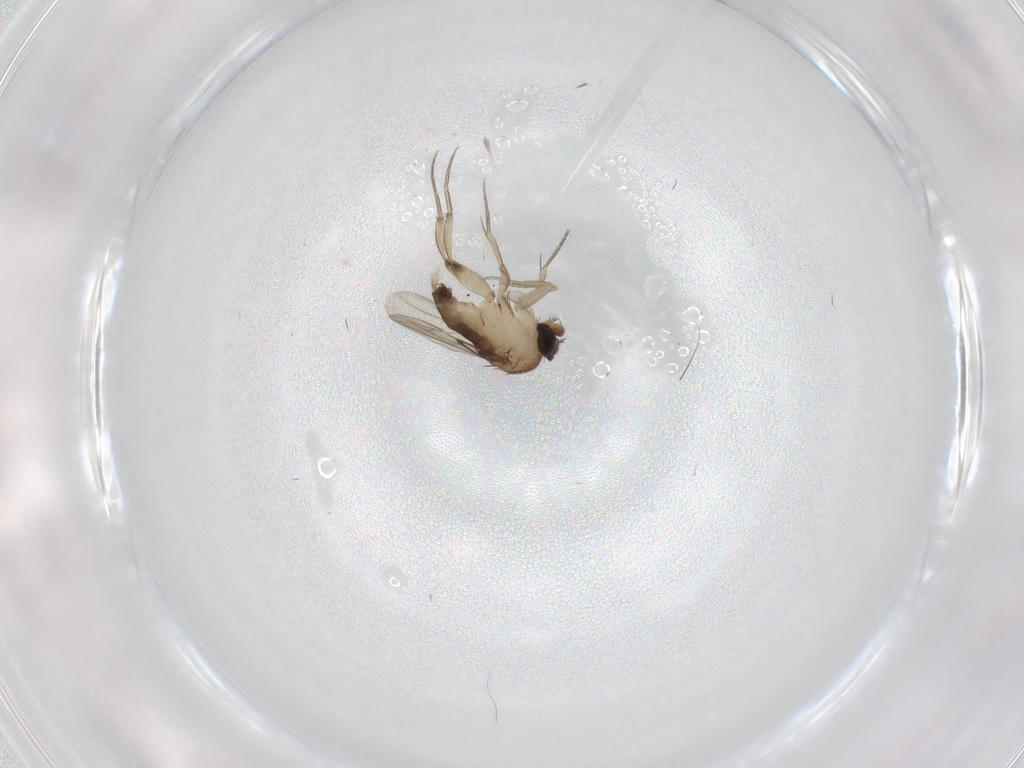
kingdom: Animalia
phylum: Arthropoda
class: Insecta
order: Diptera
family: Phoridae
